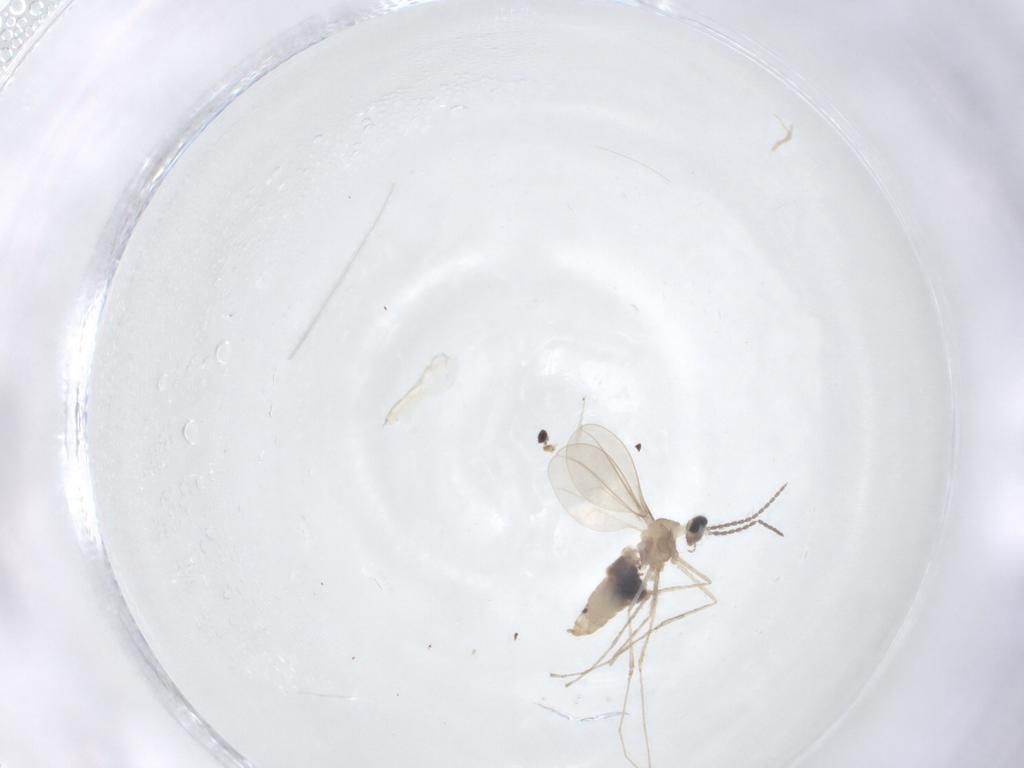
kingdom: Animalia
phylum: Arthropoda
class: Insecta
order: Diptera
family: Cecidomyiidae
